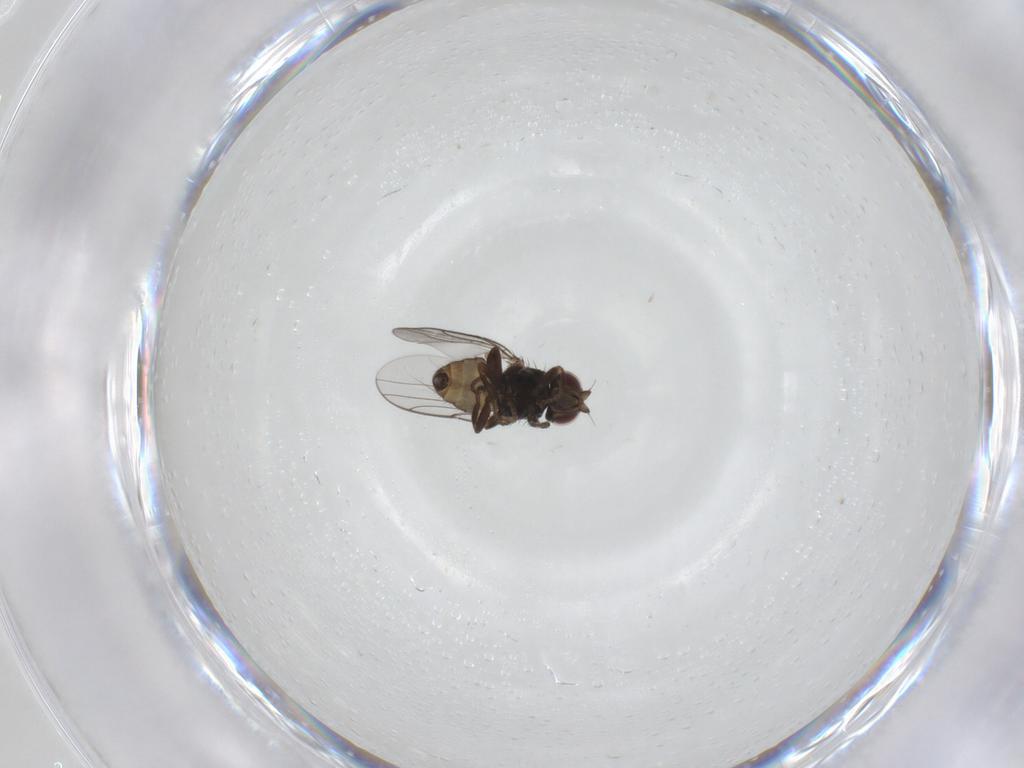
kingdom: Animalia
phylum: Arthropoda
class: Insecta
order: Diptera
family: Chloropidae
